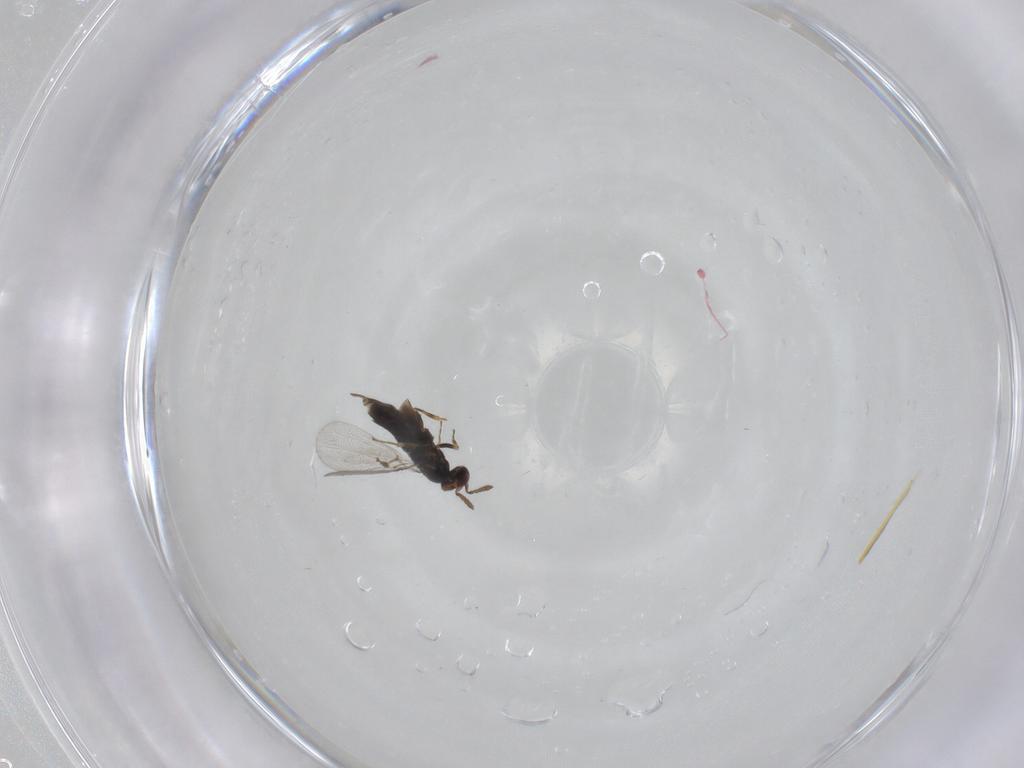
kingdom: Animalia
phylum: Arthropoda
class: Insecta
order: Hymenoptera
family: Trichogrammatidae
